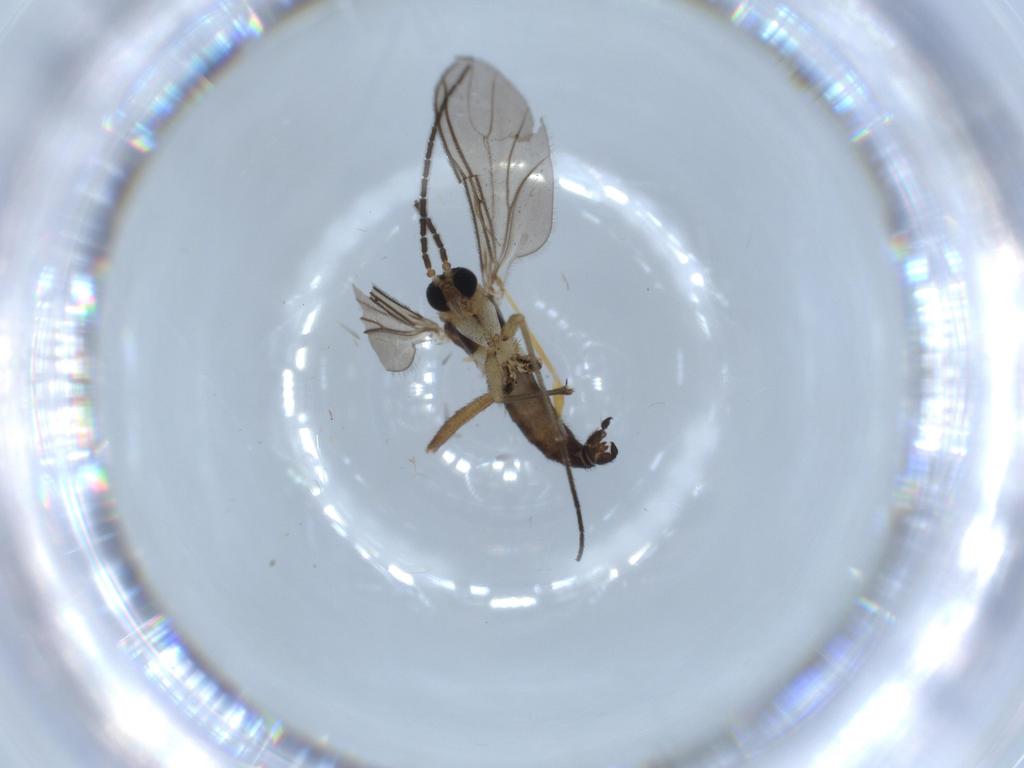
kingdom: Animalia
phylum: Arthropoda
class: Insecta
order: Diptera
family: Sciaridae
